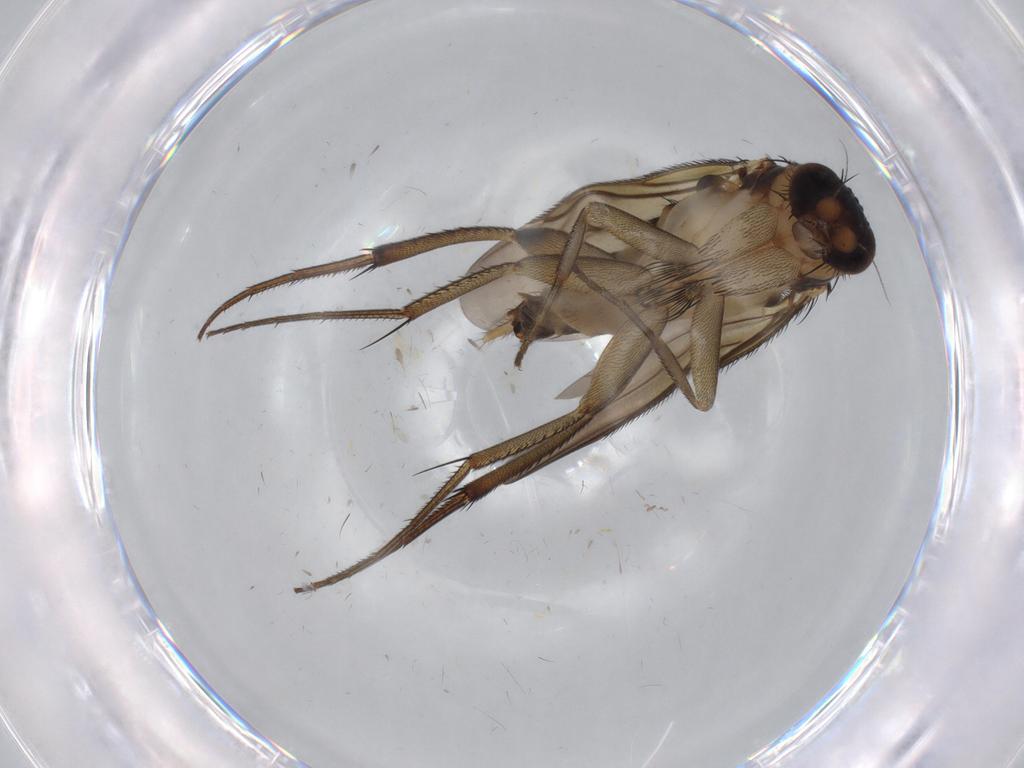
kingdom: Animalia
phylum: Arthropoda
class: Insecta
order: Diptera
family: Phoridae
